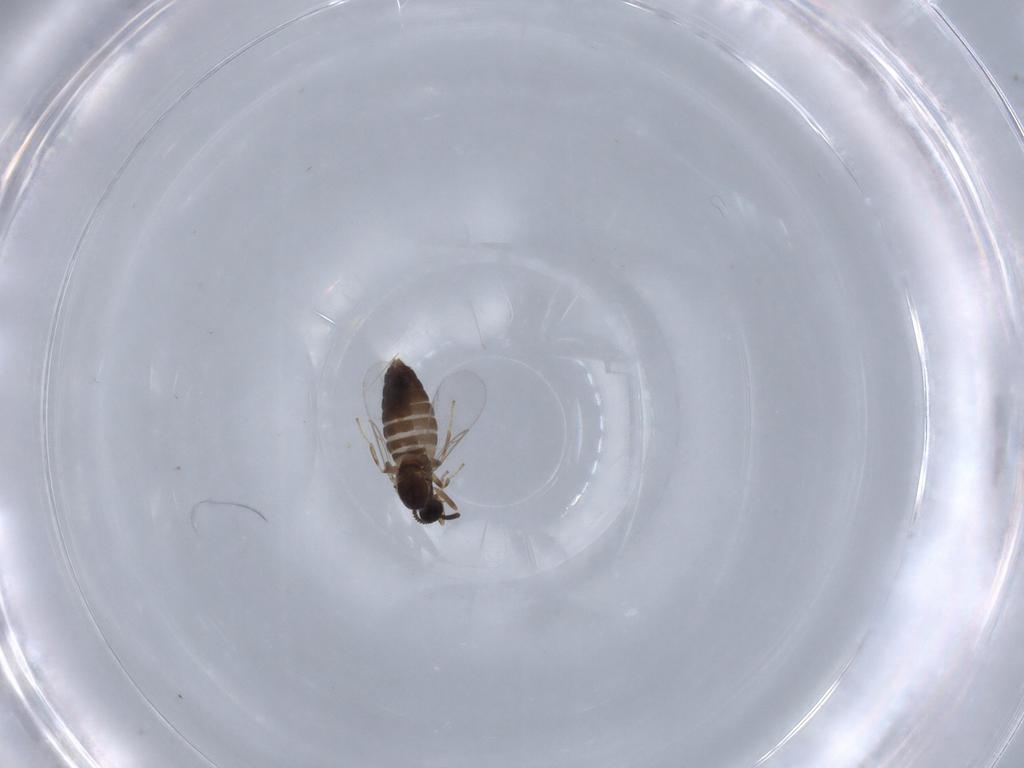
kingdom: Animalia
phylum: Arthropoda
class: Insecta
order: Diptera
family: Scatopsidae
